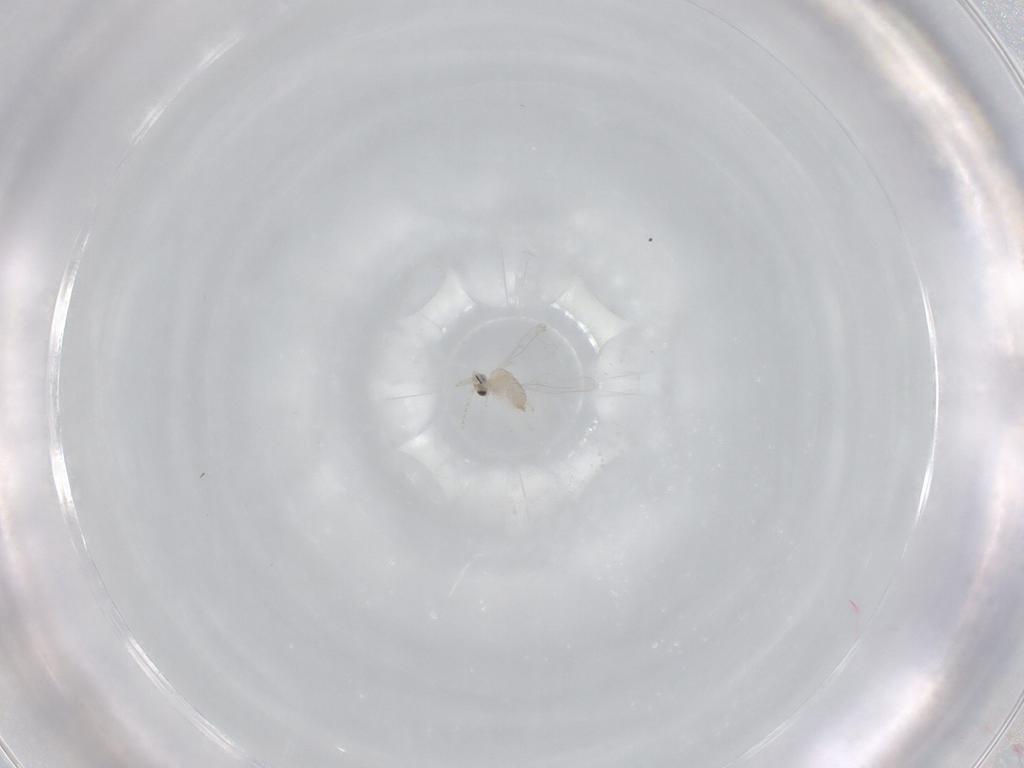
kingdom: Animalia
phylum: Arthropoda
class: Insecta
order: Diptera
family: Cecidomyiidae
